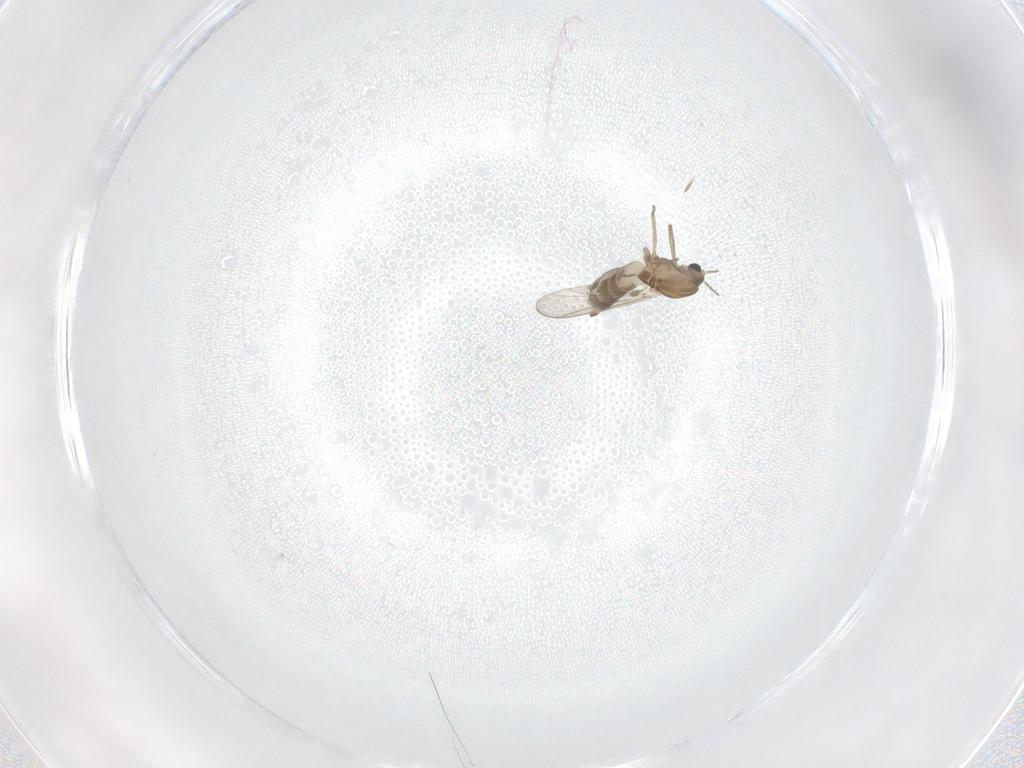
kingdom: Animalia
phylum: Arthropoda
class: Insecta
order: Diptera
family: Chironomidae
